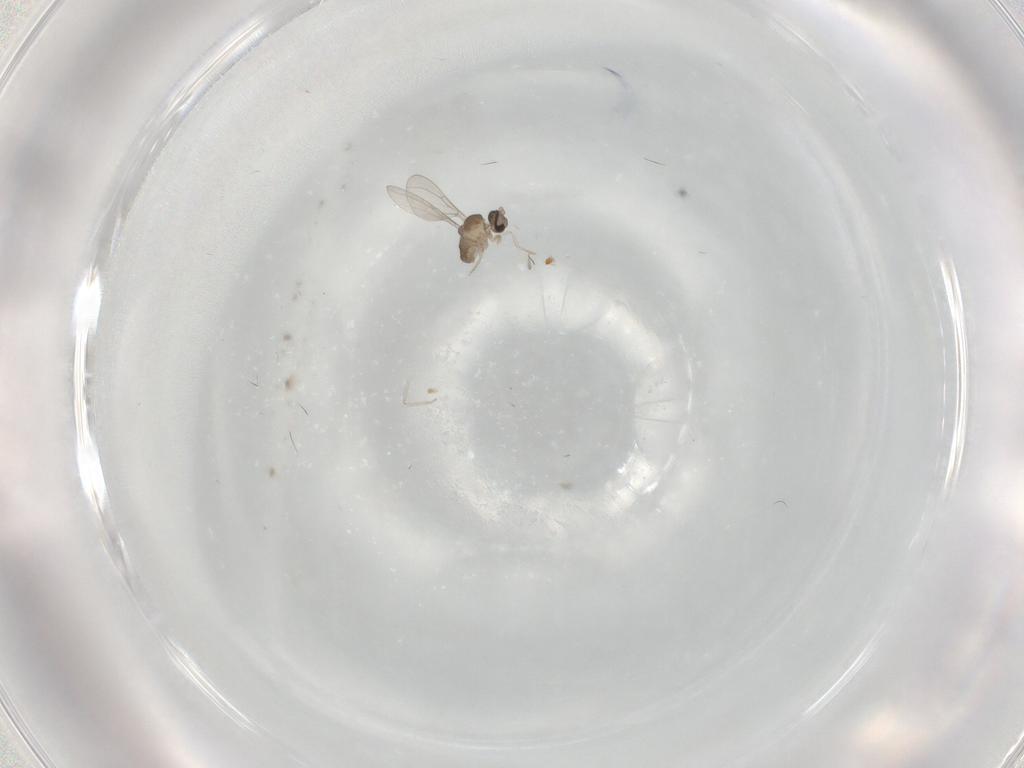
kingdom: Animalia
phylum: Arthropoda
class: Insecta
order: Diptera
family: Cecidomyiidae
